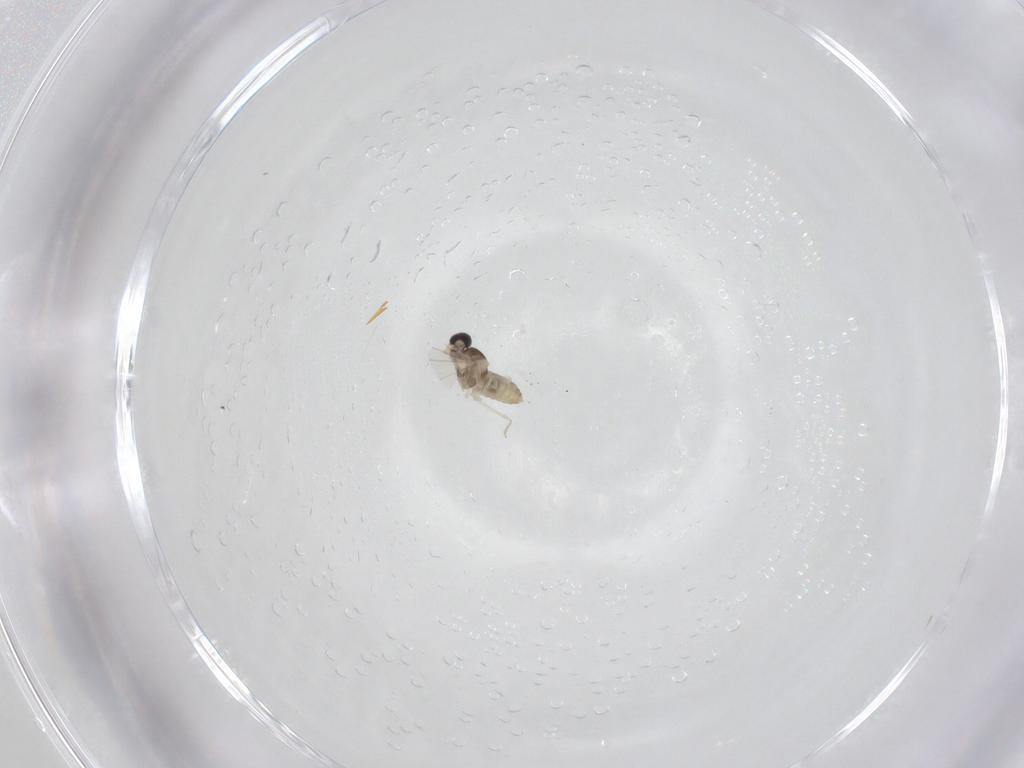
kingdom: Animalia
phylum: Arthropoda
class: Insecta
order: Diptera
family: Cecidomyiidae
